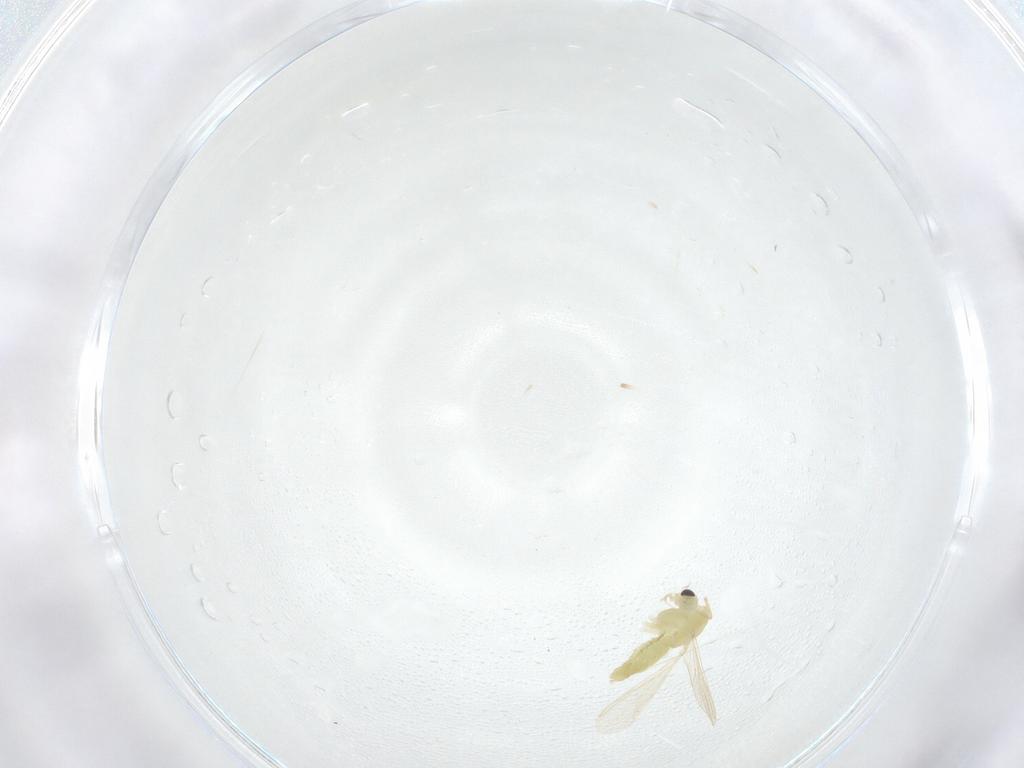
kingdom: Animalia
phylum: Arthropoda
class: Insecta
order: Diptera
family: Chironomidae
